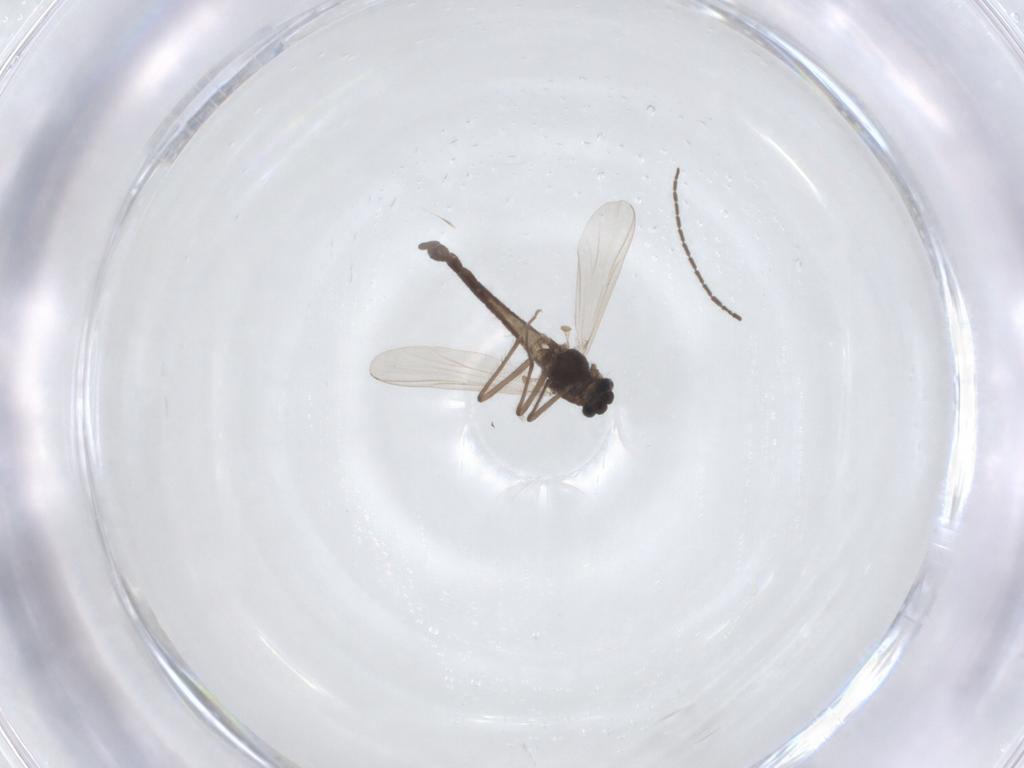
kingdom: Animalia
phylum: Arthropoda
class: Insecta
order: Diptera
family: Chironomidae
